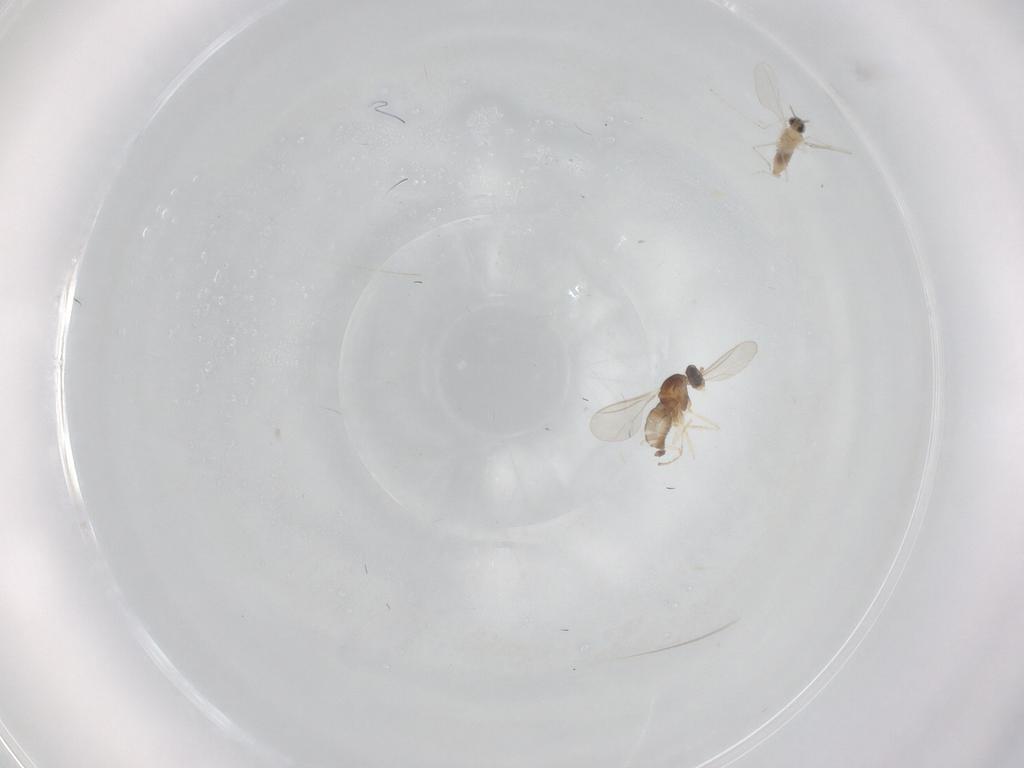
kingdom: Animalia
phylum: Arthropoda
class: Insecta
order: Diptera
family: Cecidomyiidae
